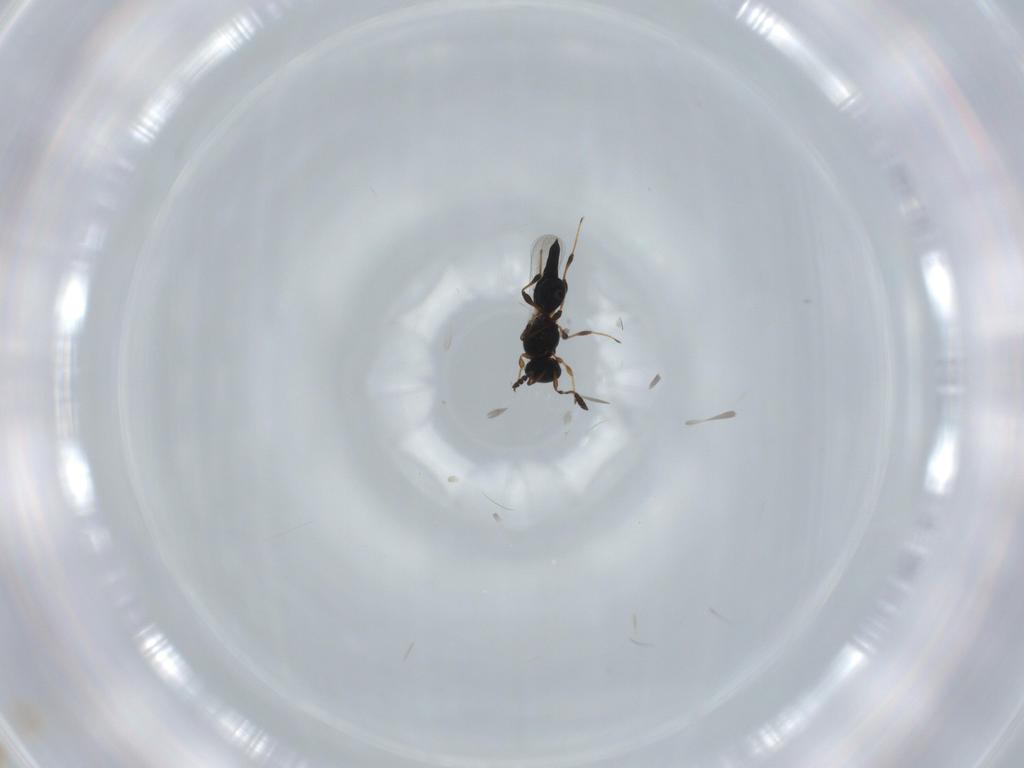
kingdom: Animalia
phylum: Arthropoda
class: Insecta
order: Hymenoptera
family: Platygastridae
